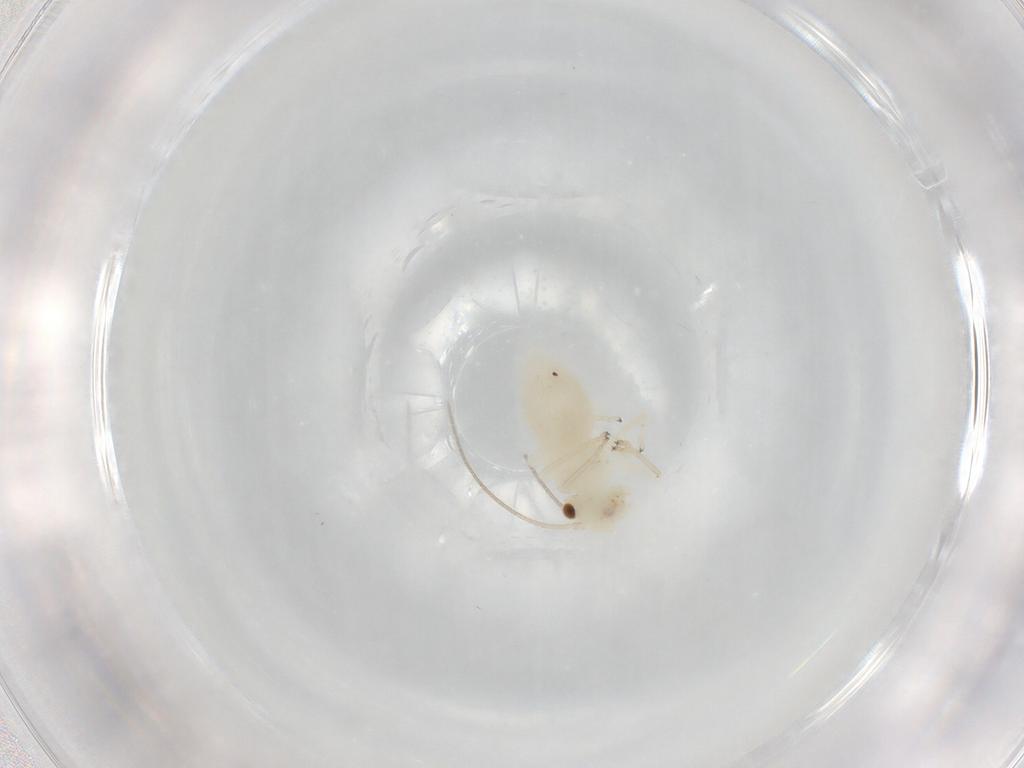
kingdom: Animalia
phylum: Arthropoda
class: Insecta
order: Psocodea
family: Caeciliusidae
